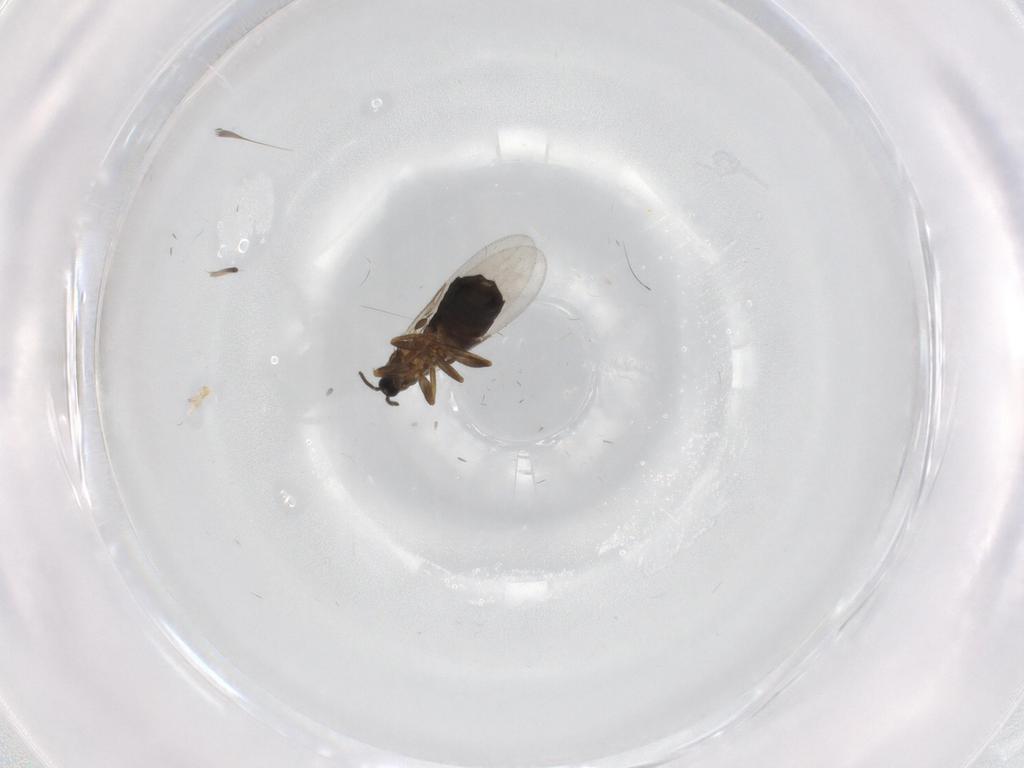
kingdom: Animalia
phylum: Arthropoda
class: Insecta
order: Diptera
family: Scatopsidae
